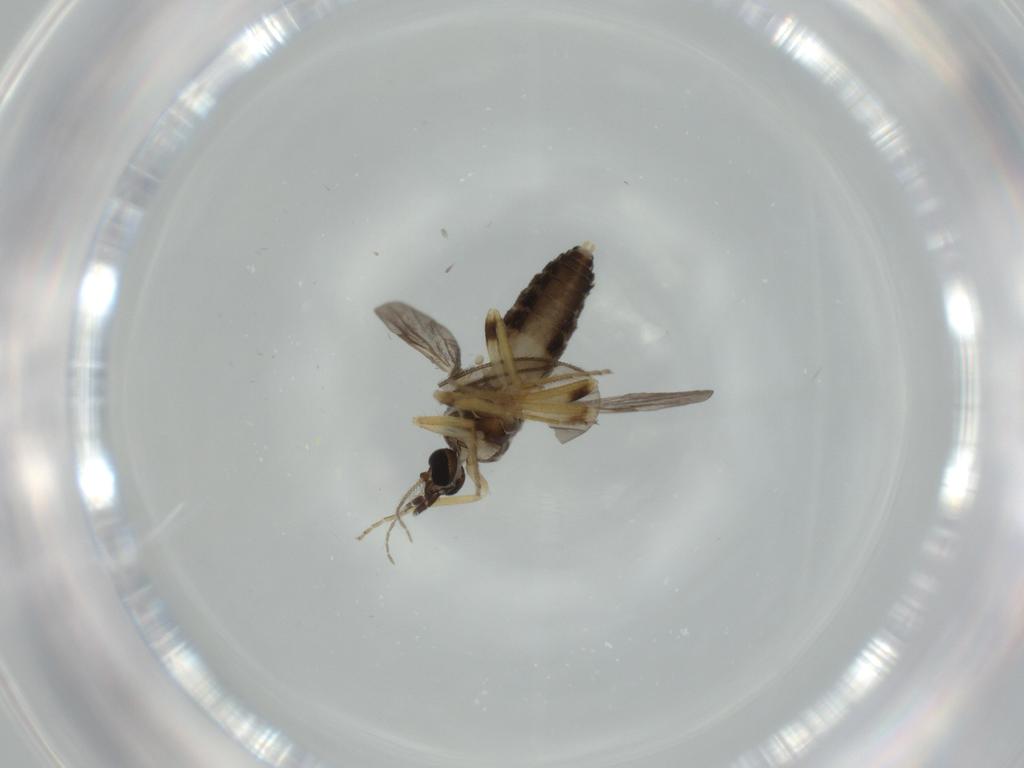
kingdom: Animalia
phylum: Arthropoda
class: Insecta
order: Diptera
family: Ceratopogonidae
